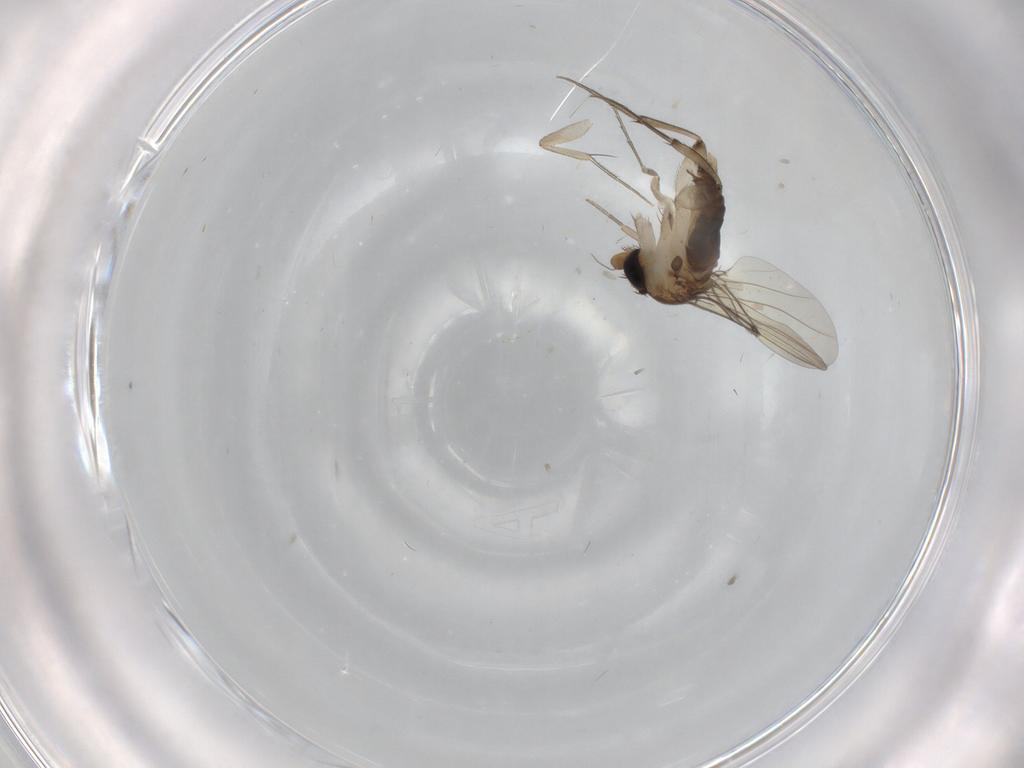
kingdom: Animalia
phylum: Arthropoda
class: Insecta
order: Diptera
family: Phoridae
